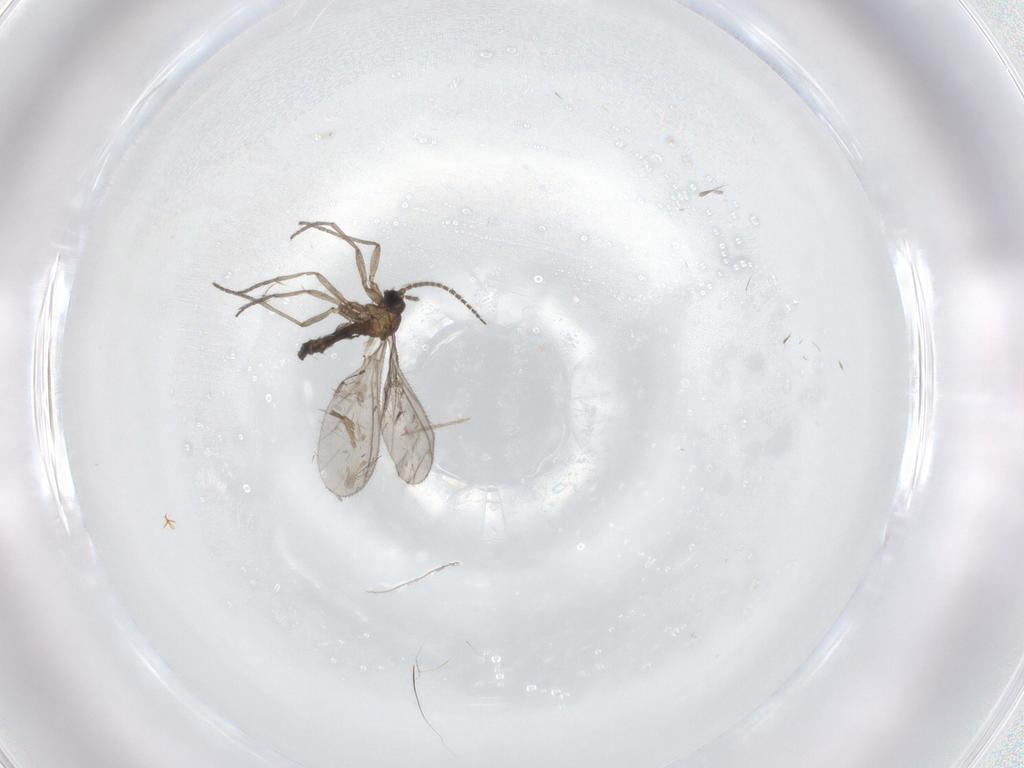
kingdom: Animalia
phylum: Arthropoda
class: Insecta
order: Diptera
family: Sciaridae
